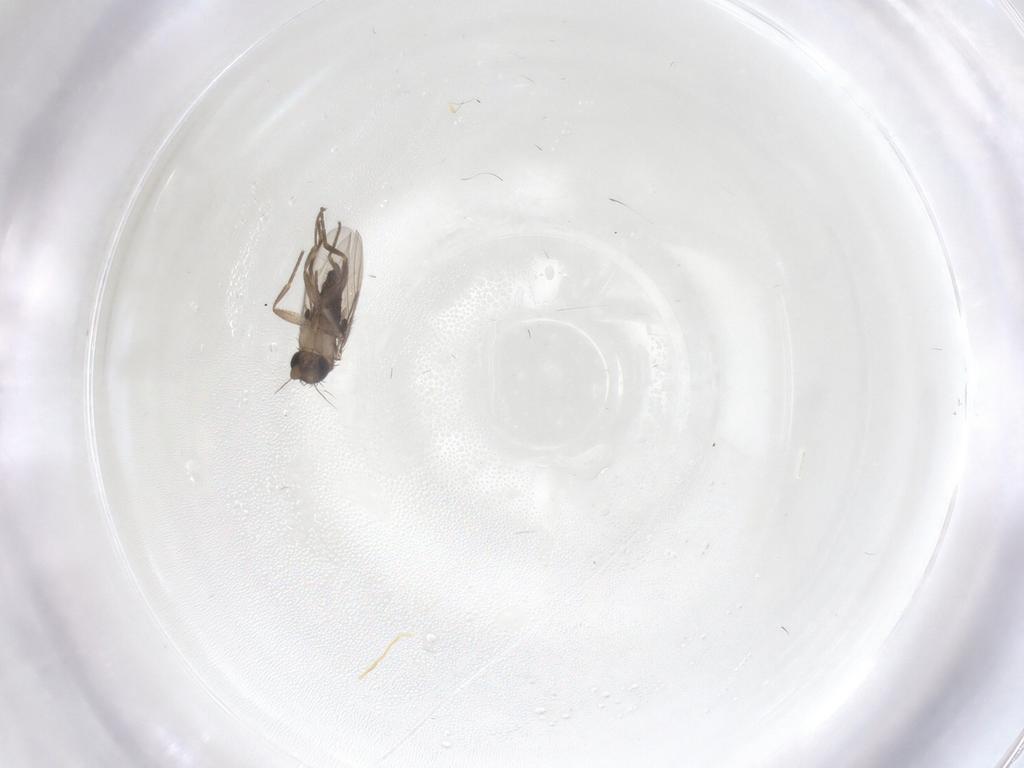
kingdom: Animalia
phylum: Arthropoda
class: Insecta
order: Diptera
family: Phoridae
